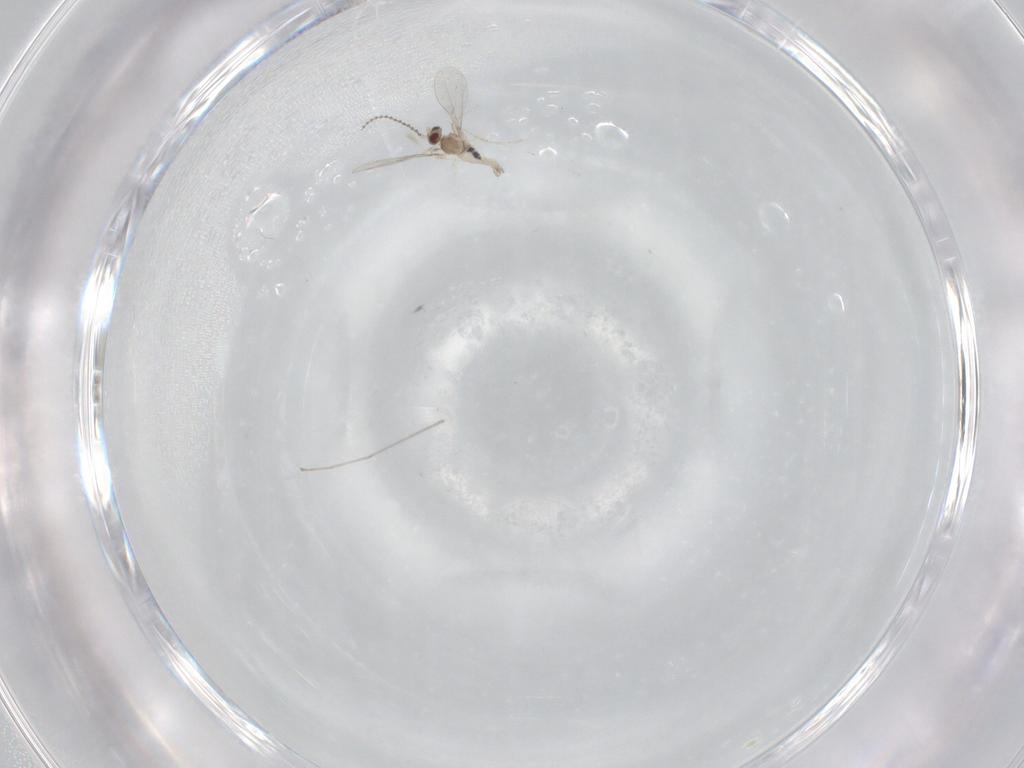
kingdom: Animalia
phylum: Arthropoda
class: Insecta
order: Diptera
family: Cecidomyiidae
